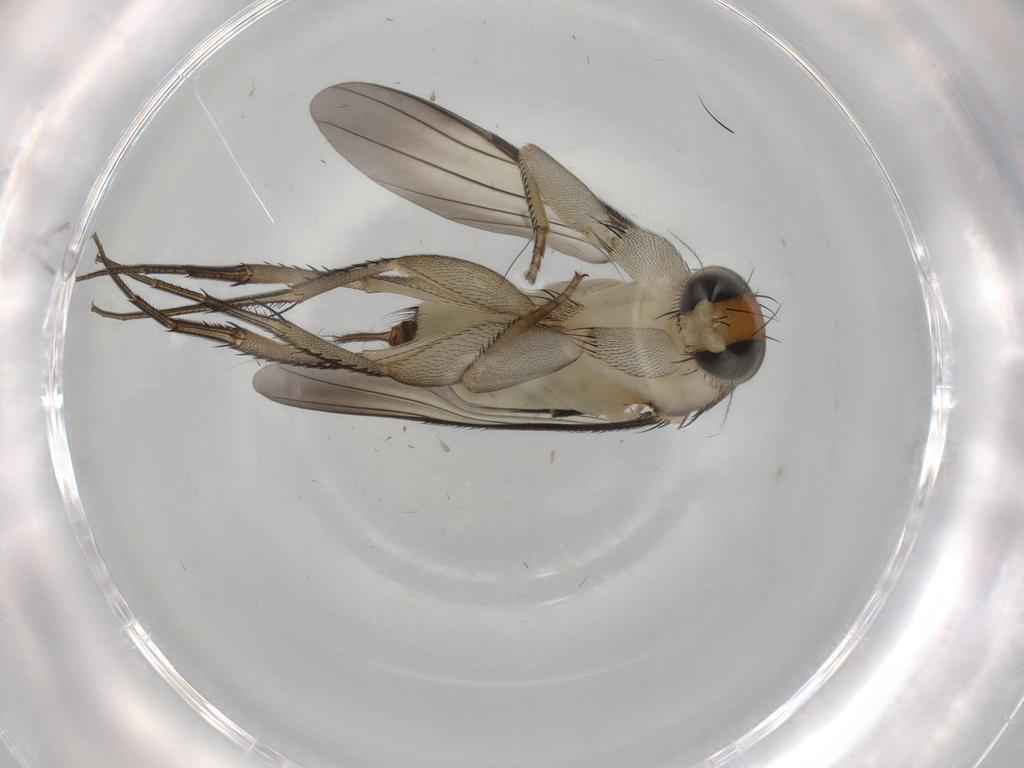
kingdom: Animalia
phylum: Arthropoda
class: Insecta
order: Diptera
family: Phoridae
